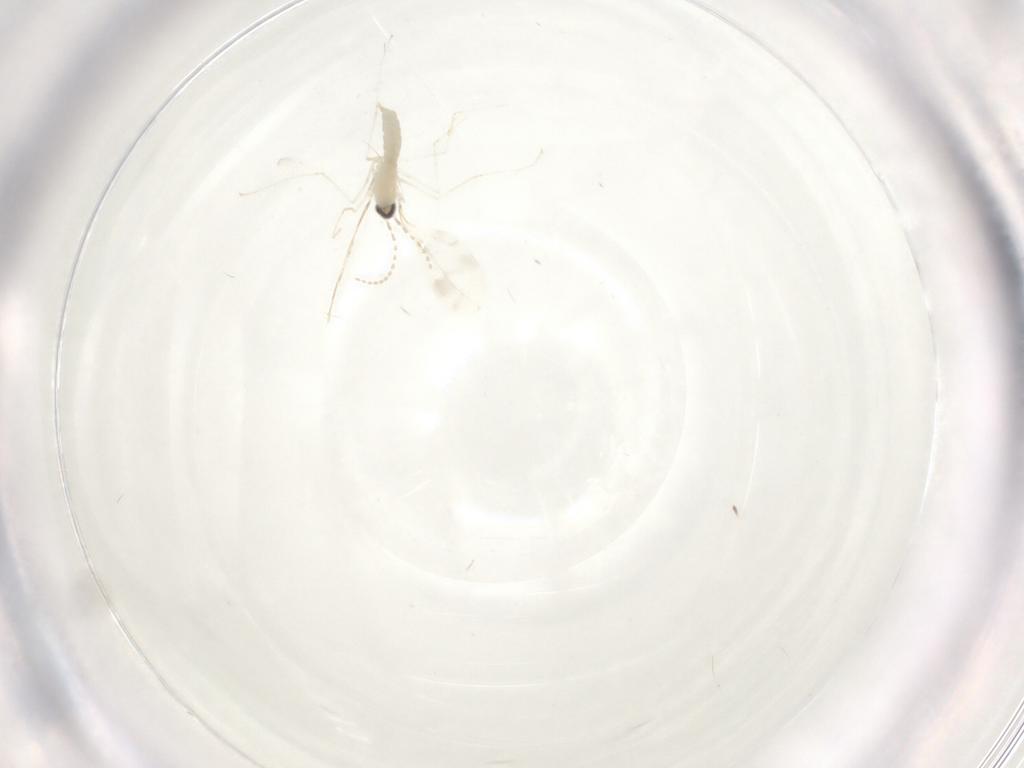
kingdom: Animalia
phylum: Arthropoda
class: Insecta
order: Diptera
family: Cecidomyiidae
